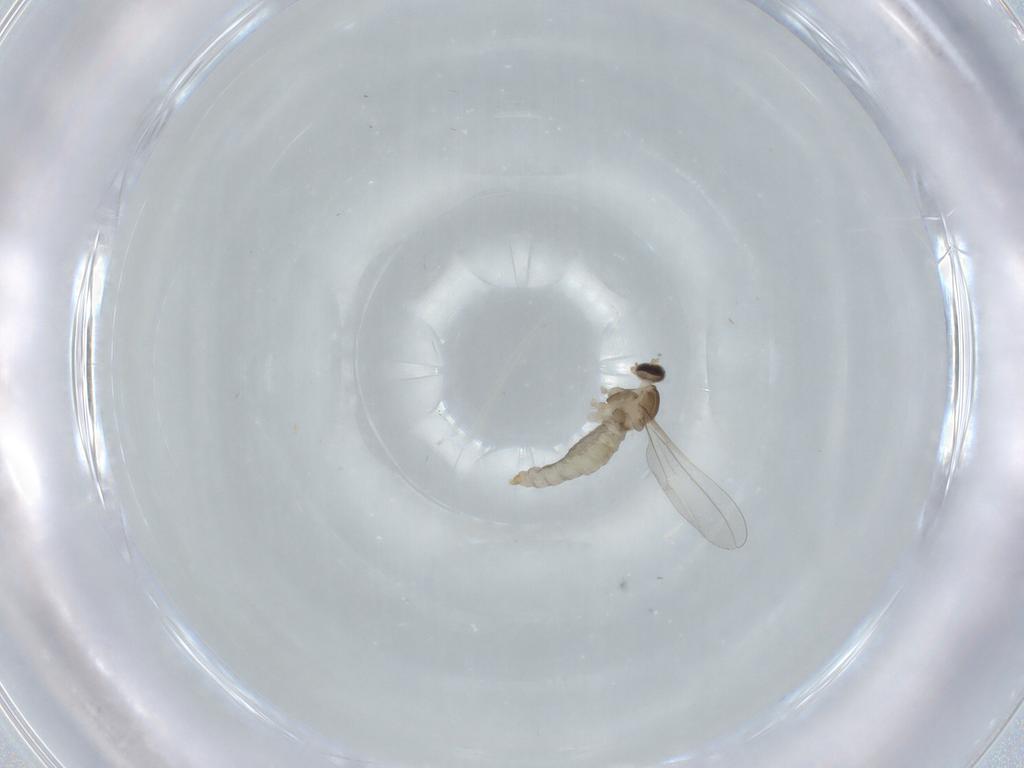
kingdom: Animalia
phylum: Arthropoda
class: Insecta
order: Diptera
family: Cecidomyiidae
